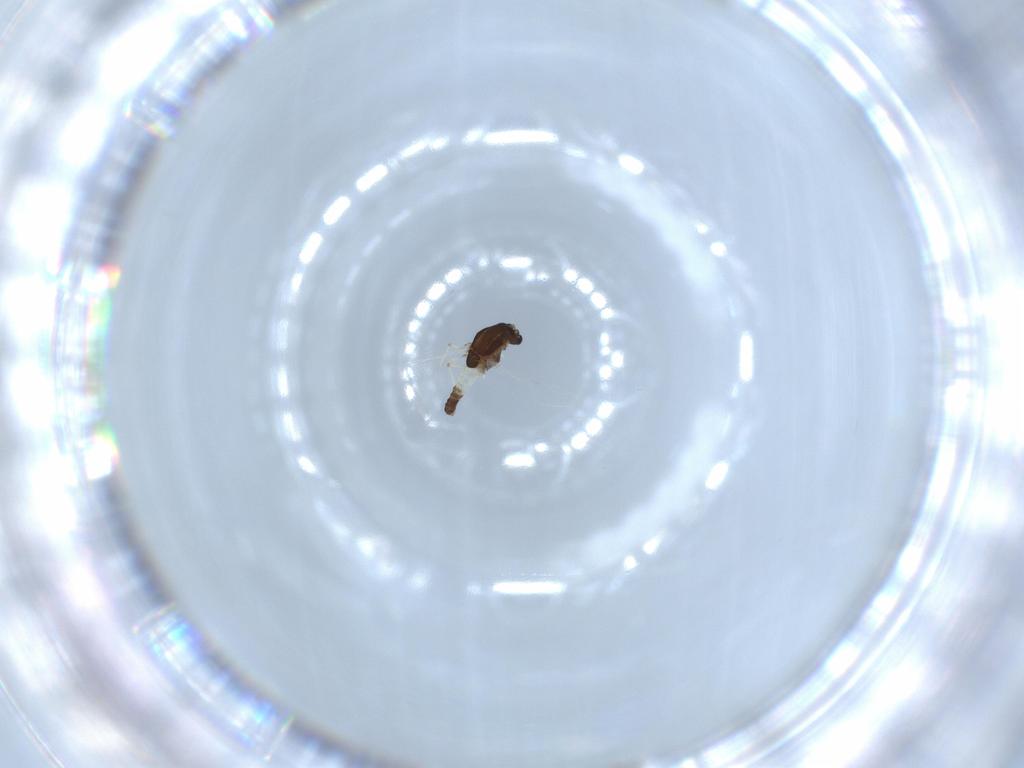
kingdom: Animalia
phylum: Arthropoda
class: Insecta
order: Diptera
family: Chironomidae
